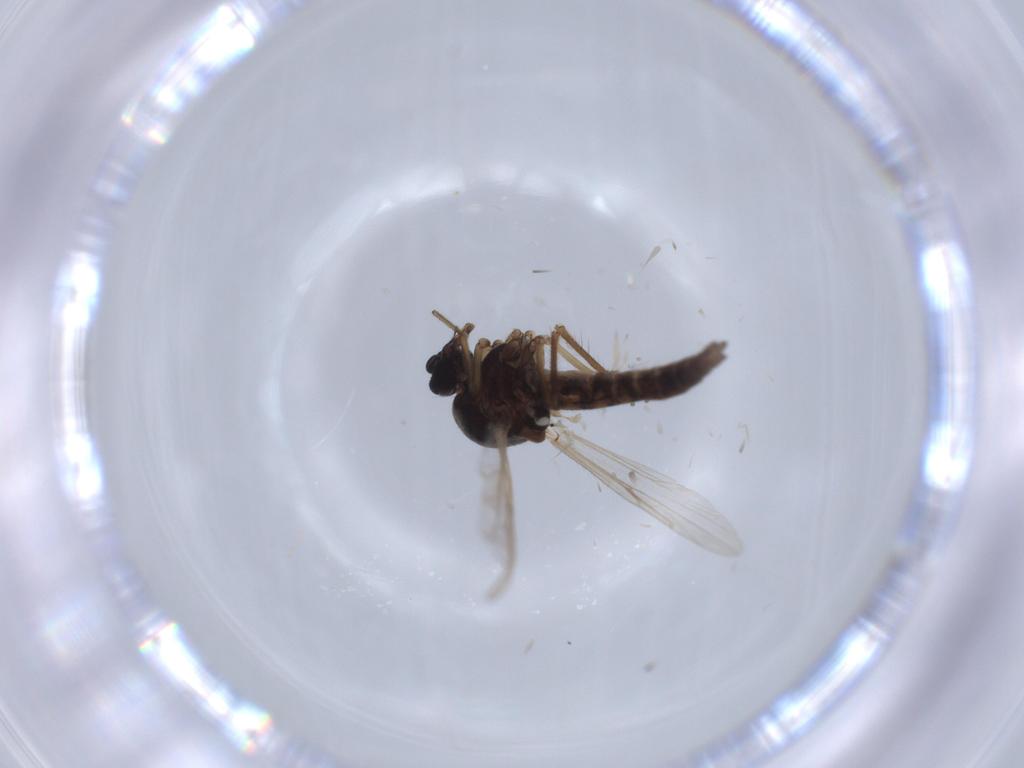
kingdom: Animalia
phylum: Arthropoda
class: Insecta
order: Diptera
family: Ceratopogonidae
